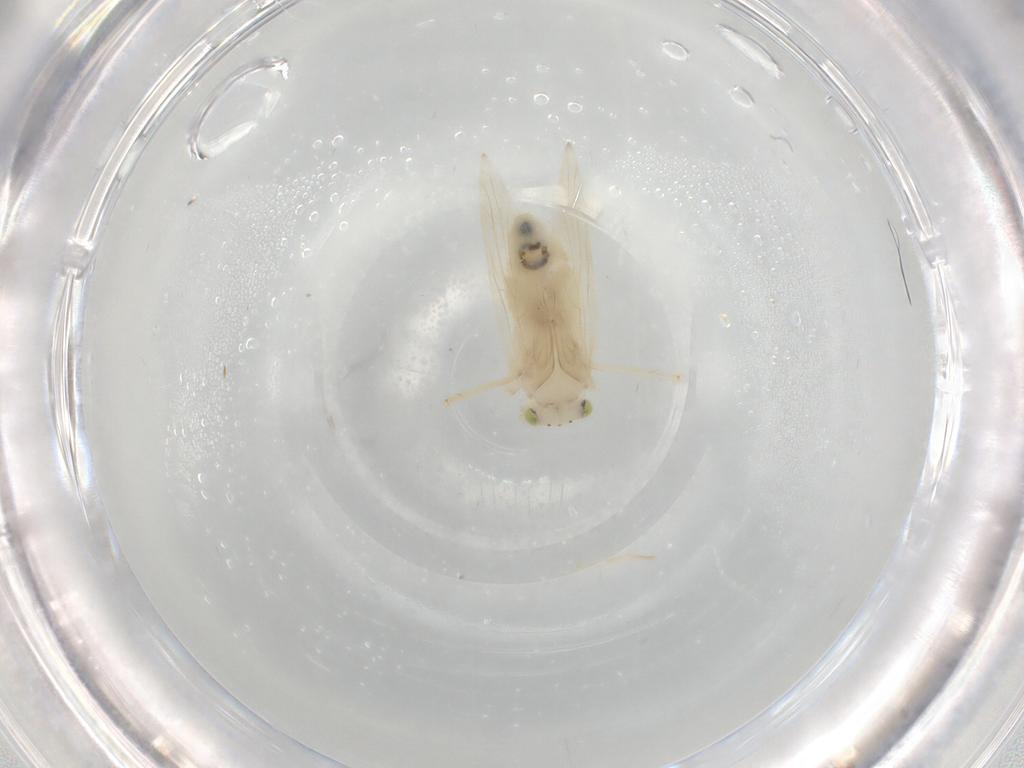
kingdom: Animalia
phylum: Arthropoda
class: Insecta
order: Psocodea
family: Lepidopsocidae
